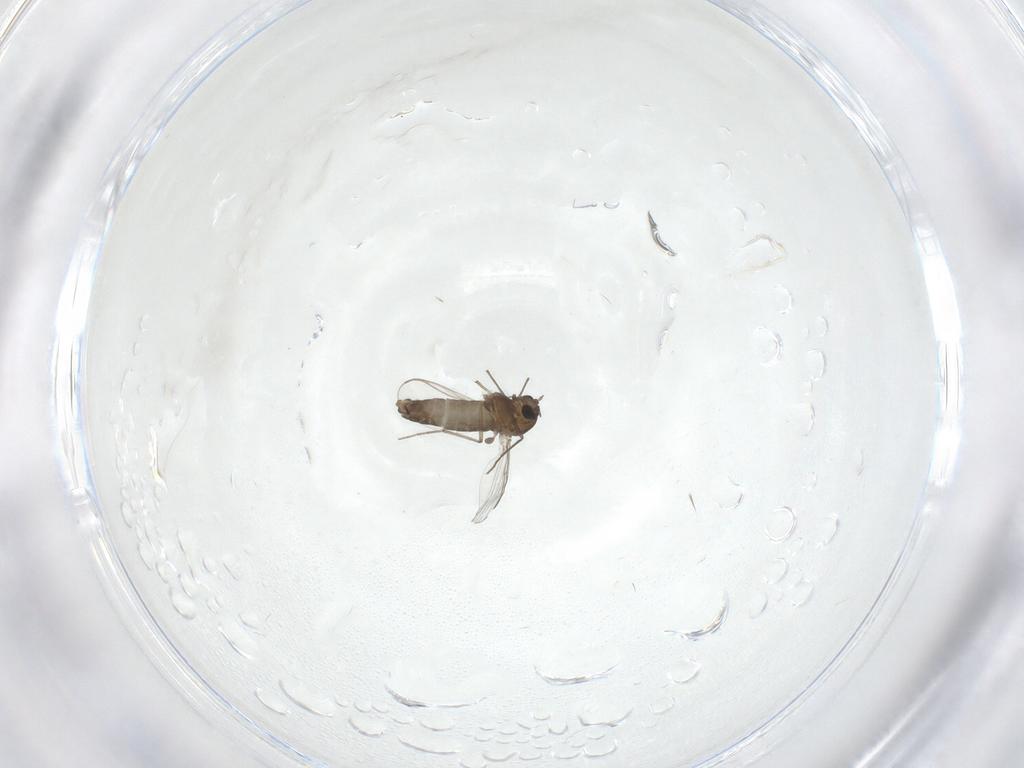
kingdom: Animalia
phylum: Arthropoda
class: Insecta
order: Diptera
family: Chironomidae
